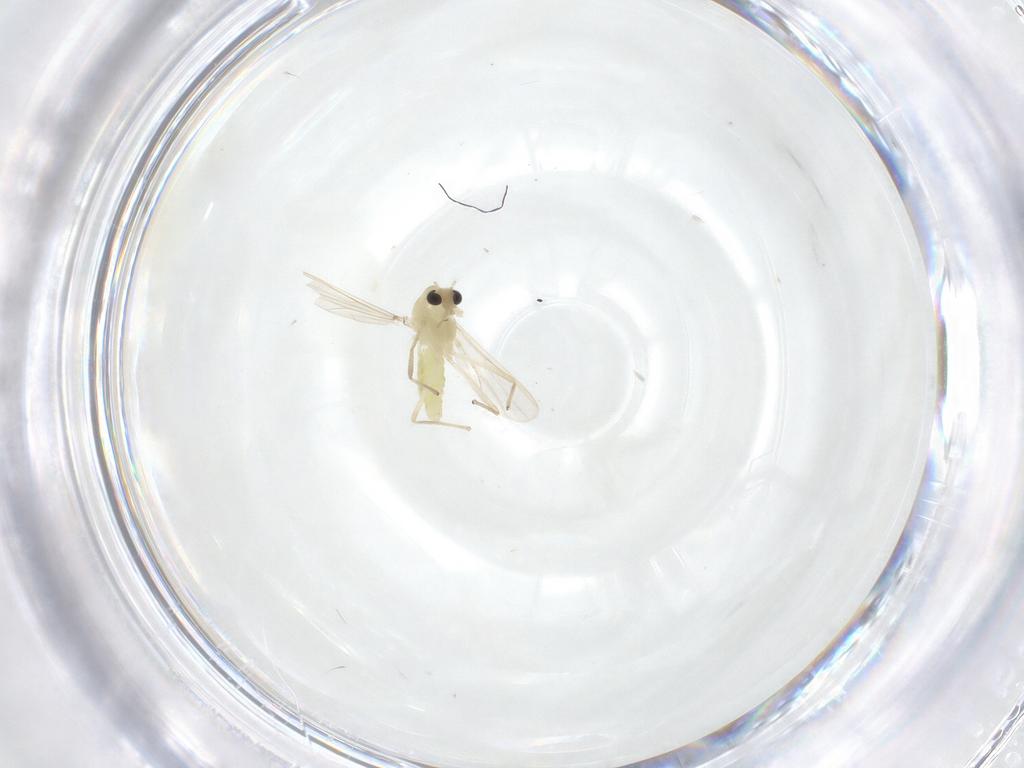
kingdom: Animalia
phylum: Arthropoda
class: Insecta
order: Diptera
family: Chironomidae
